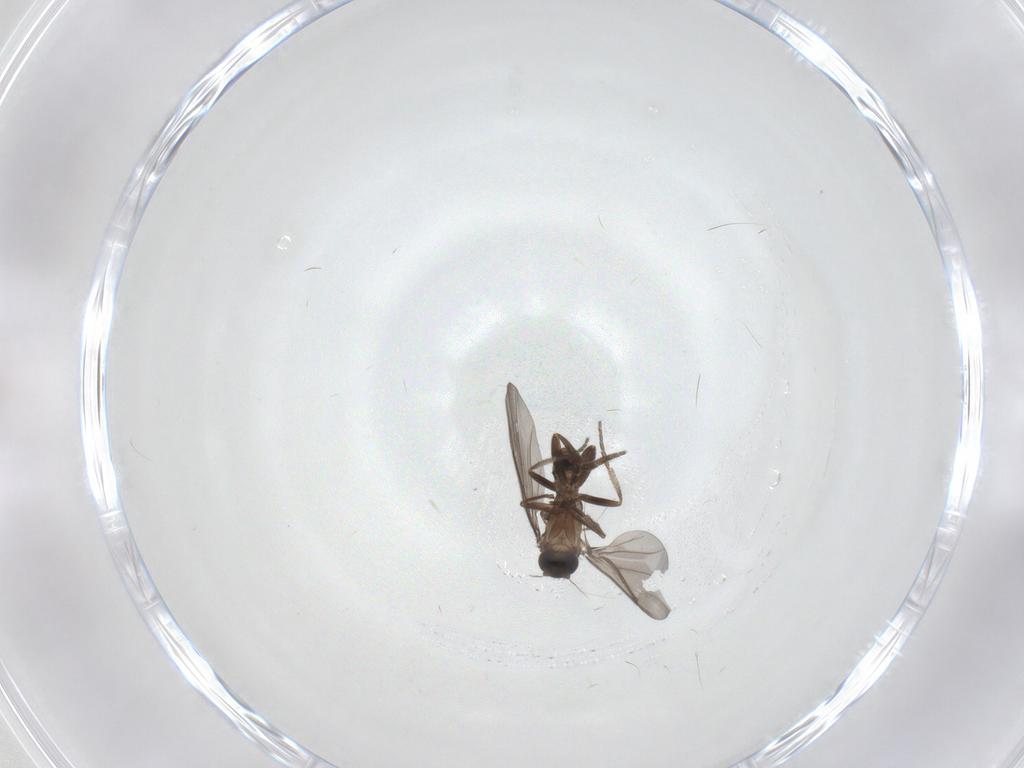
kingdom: Animalia
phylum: Arthropoda
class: Insecta
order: Diptera
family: Phoridae
